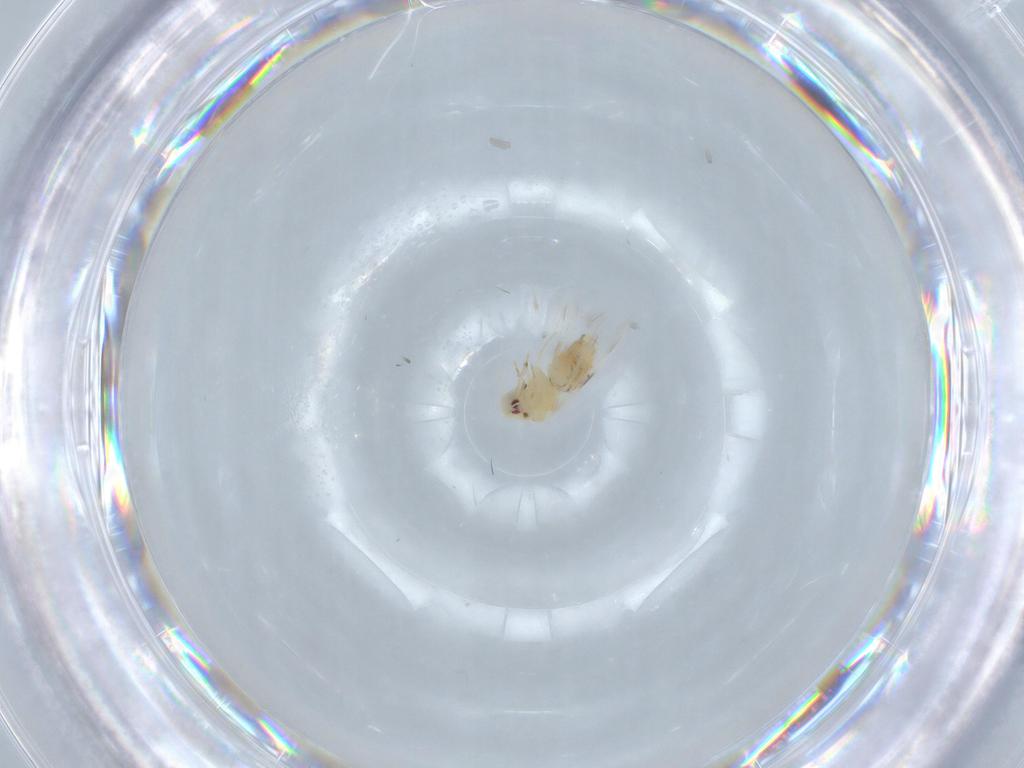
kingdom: Animalia
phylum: Arthropoda
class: Insecta
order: Hemiptera
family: Aleyrodidae
